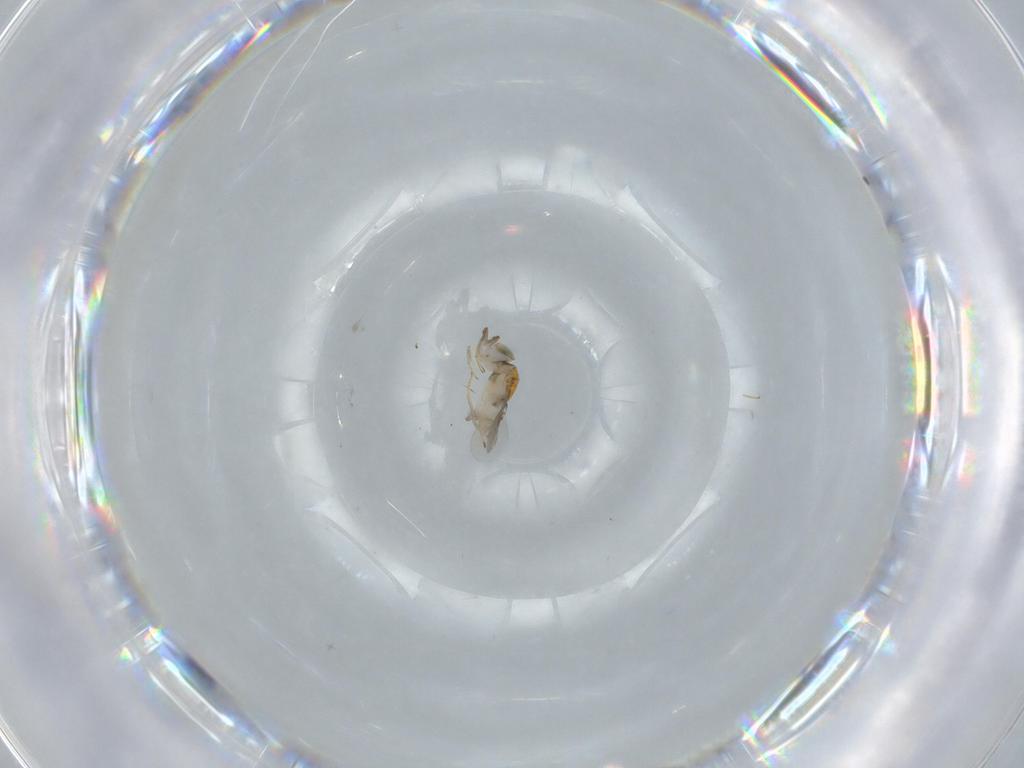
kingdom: Animalia
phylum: Arthropoda
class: Insecta
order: Hymenoptera
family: Encyrtidae
